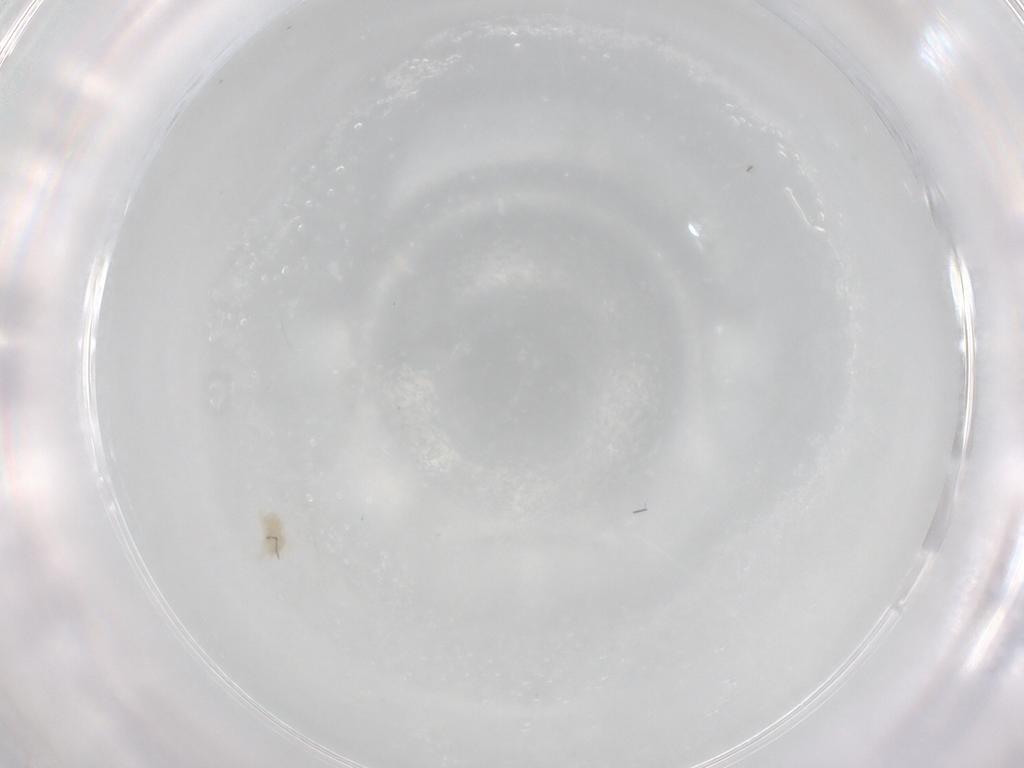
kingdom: Animalia
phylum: Arthropoda
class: Arachnida
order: Trombidiformes
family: Eupodidae
